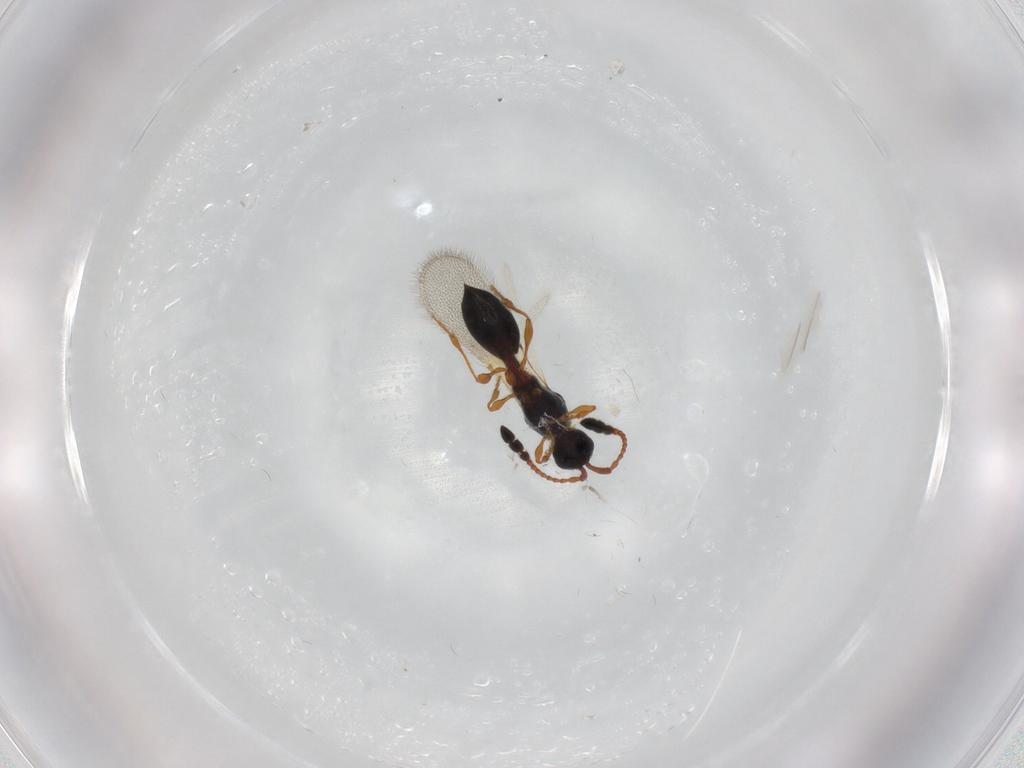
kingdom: Animalia
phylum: Arthropoda
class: Insecta
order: Hymenoptera
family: Diapriidae
